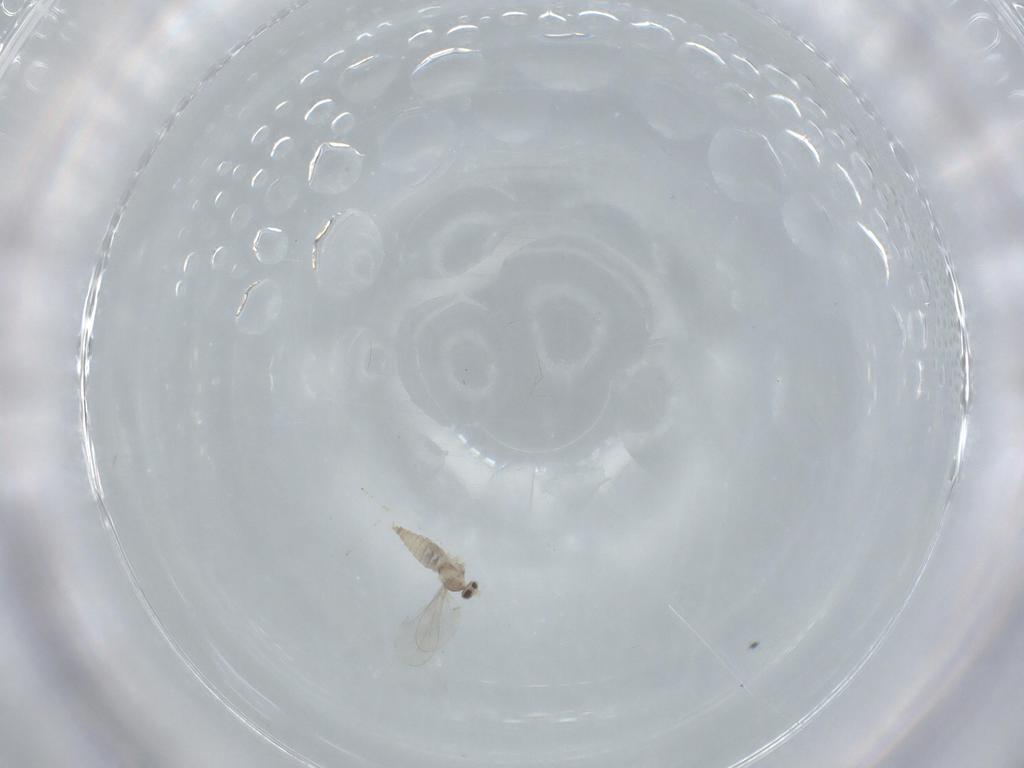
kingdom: Animalia
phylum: Arthropoda
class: Insecta
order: Diptera
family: Cecidomyiidae
